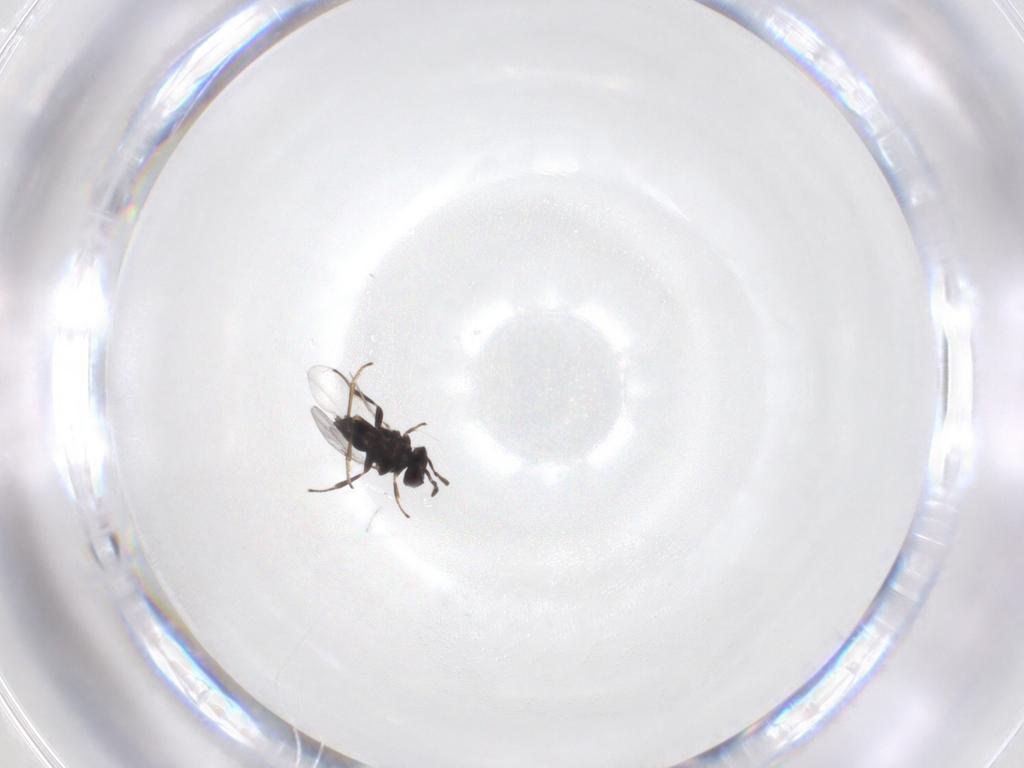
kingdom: Animalia
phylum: Arthropoda
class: Insecta
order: Hymenoptera
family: Encyrtidae
